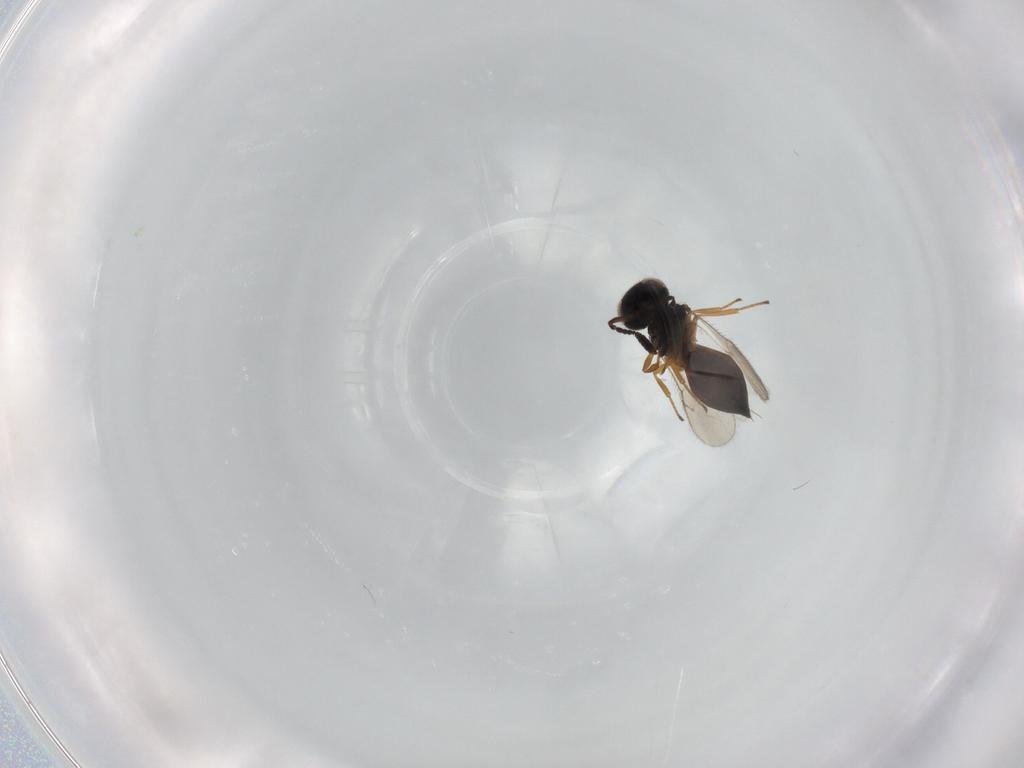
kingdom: Animalia
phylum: Arthropoda
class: Insecta
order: Hymenoptera
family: Scelionidae
